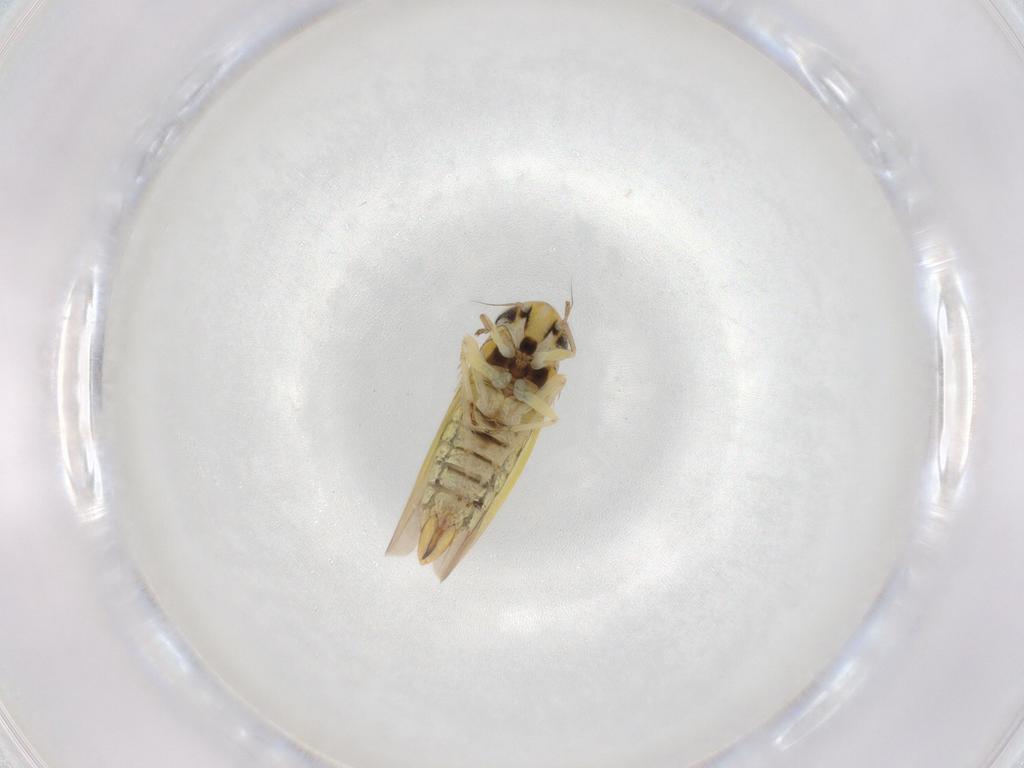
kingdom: Animalia
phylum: Arthropoda
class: Insecta
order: Hemiptera
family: Cicadellidae
